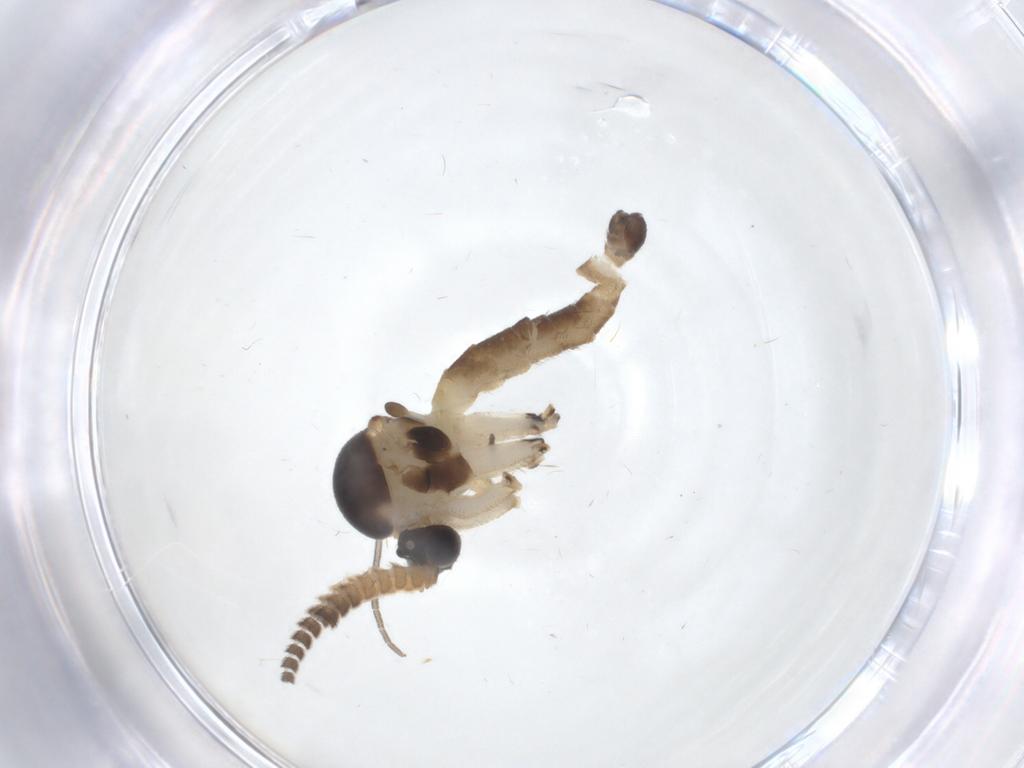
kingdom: Animalia
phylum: Arthropoda
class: Insecta
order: Diptera
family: Mycetophilidae
